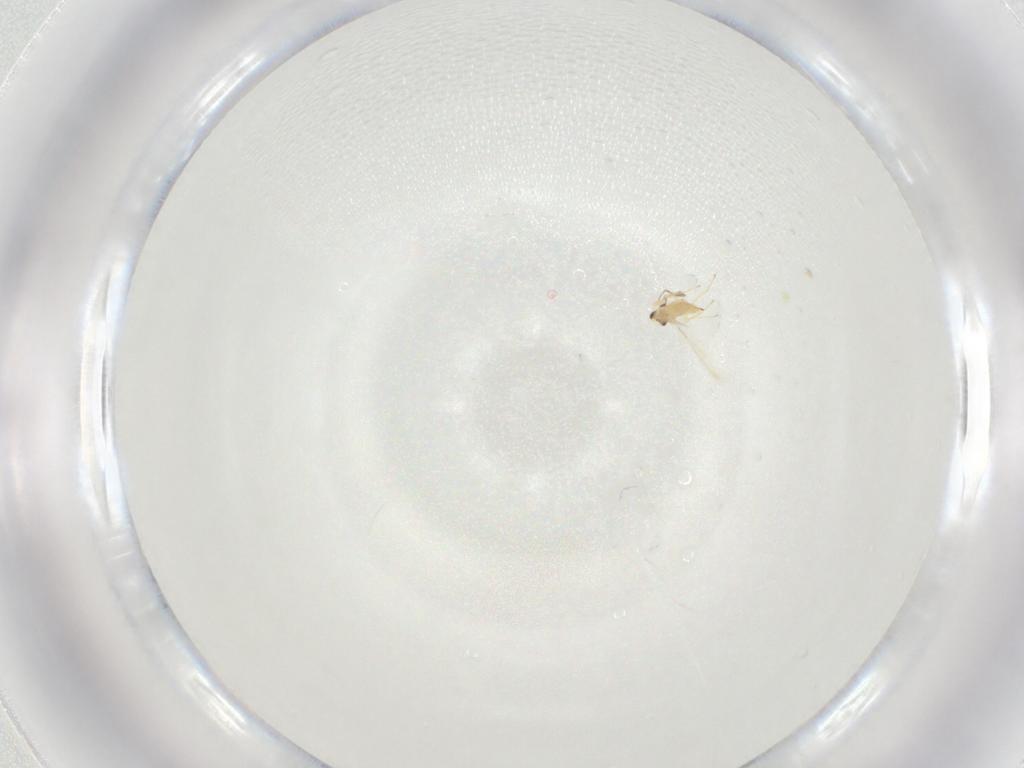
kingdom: Animalia
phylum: Arthropoda
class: Insecta
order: Hymenoptera
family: Mymaridae
